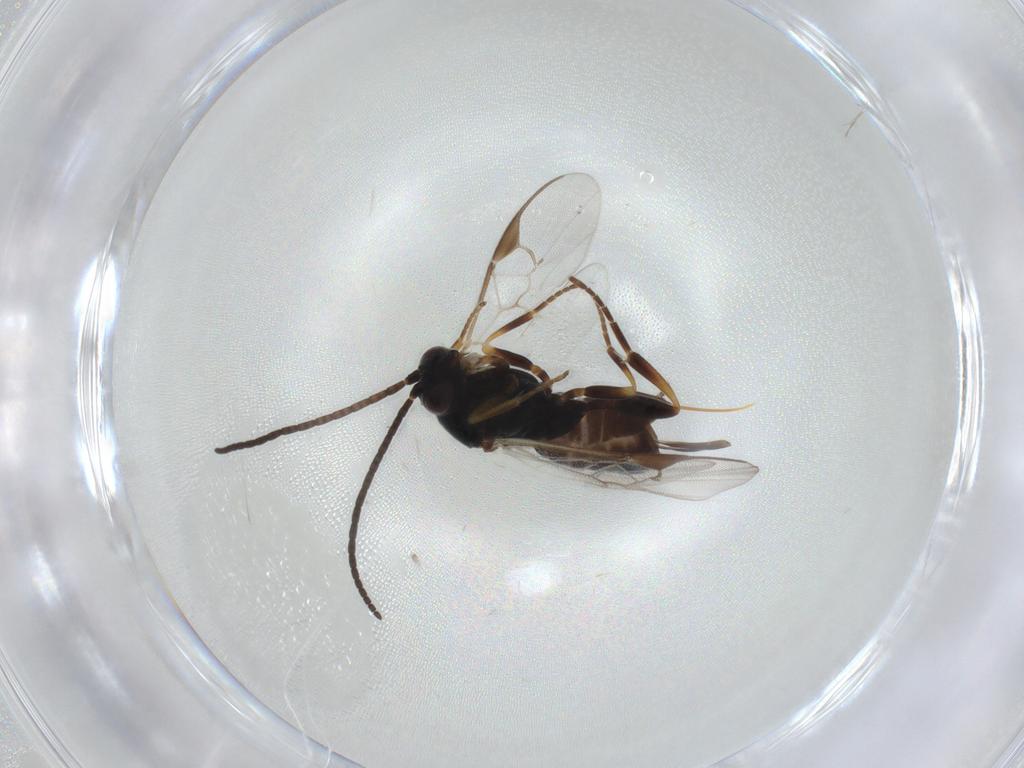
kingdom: Animalia
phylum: Arthropoda
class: Insecta
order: Hymenoptera
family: Braconidae
